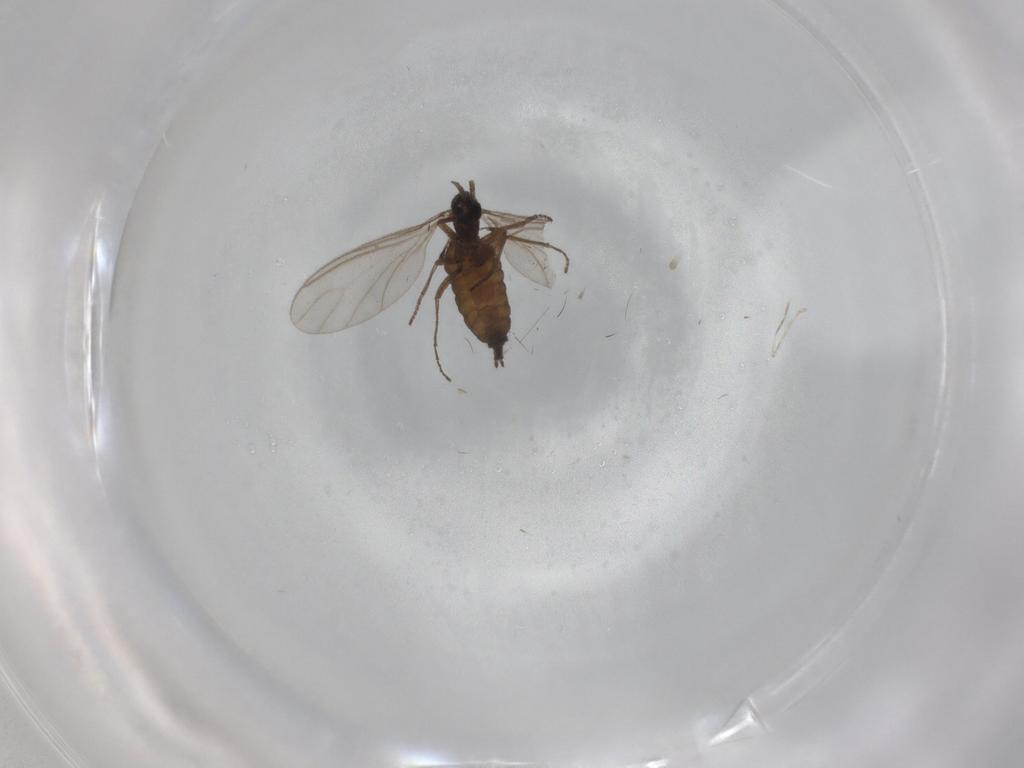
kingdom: Animalia
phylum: Arthropoda
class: Insecta
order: Diptera
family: Sciaridae
